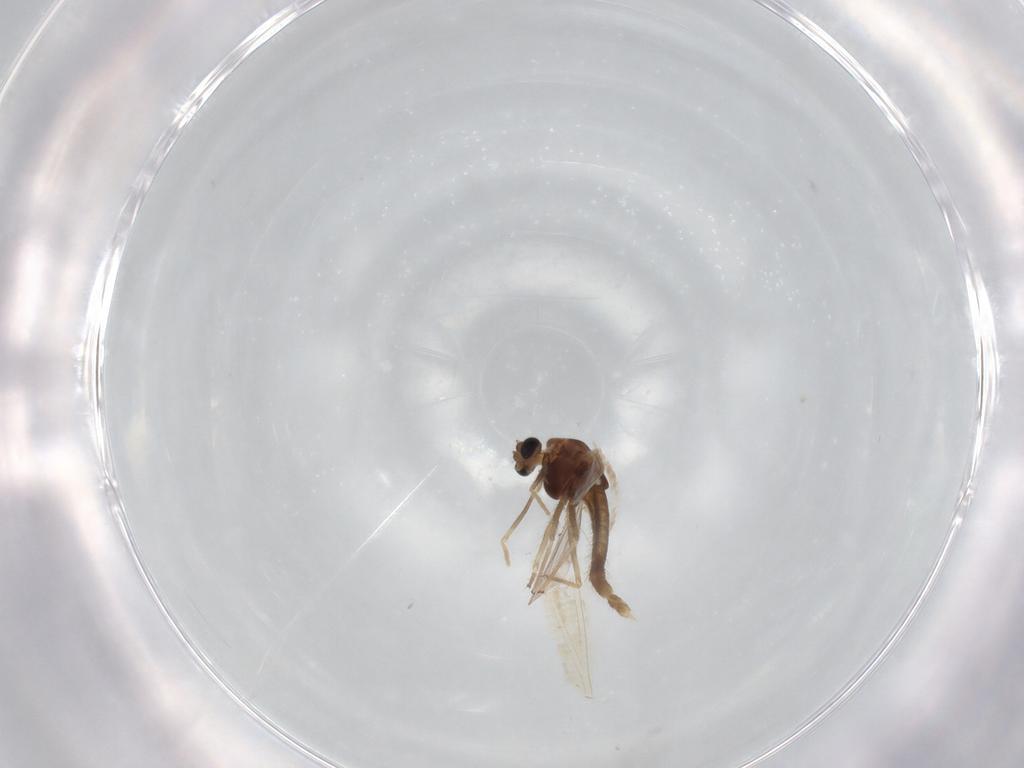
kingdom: Animalia
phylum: Arthropoda
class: Insecta
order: Diptera
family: Chironomidae
